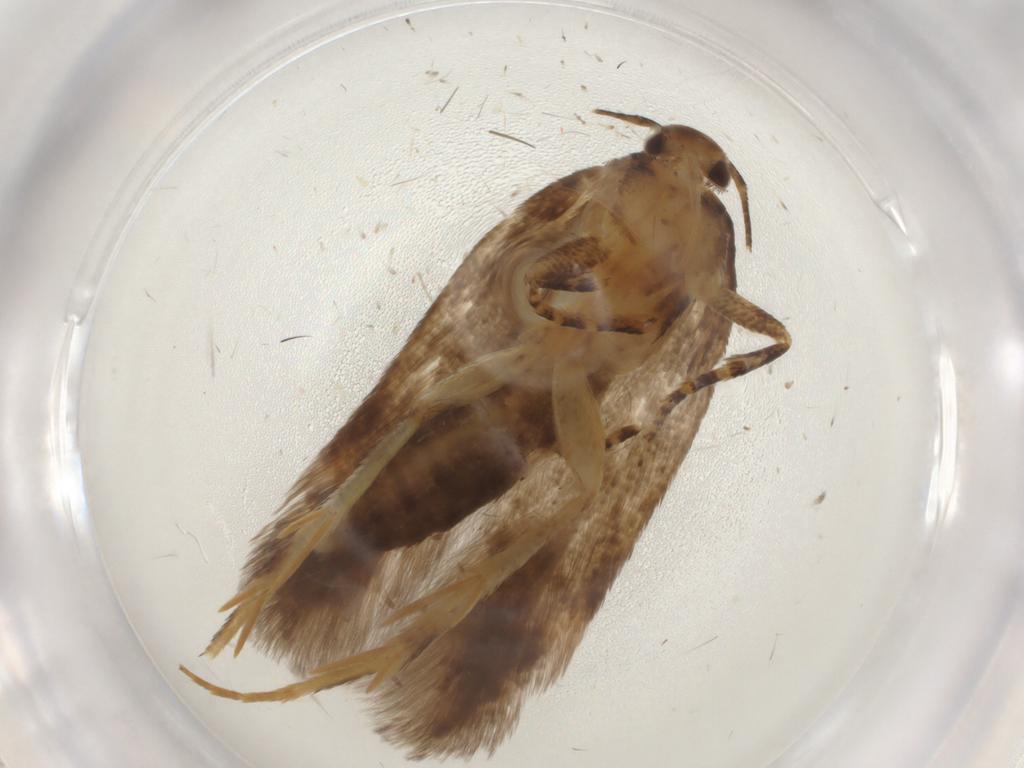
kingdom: Animalia
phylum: Arthropoda
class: Insecta
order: Lepidoptera
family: Gelechiidae
